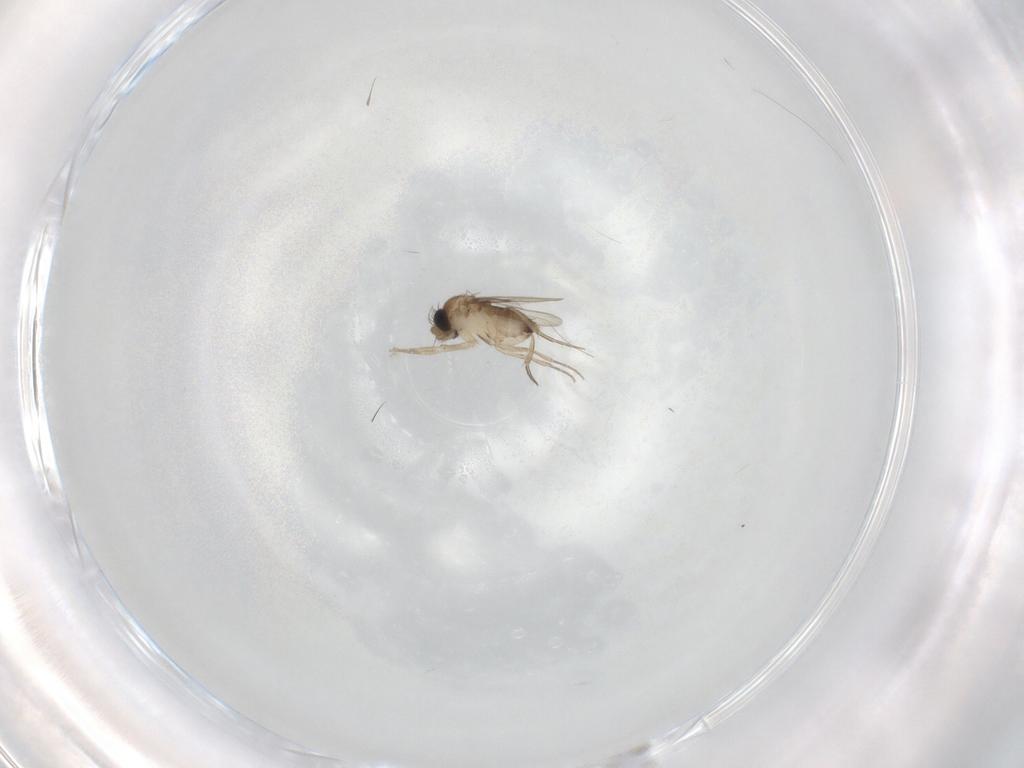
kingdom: Animalia
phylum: Arthropoda
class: Insecta
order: Diptera
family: Phoridae
